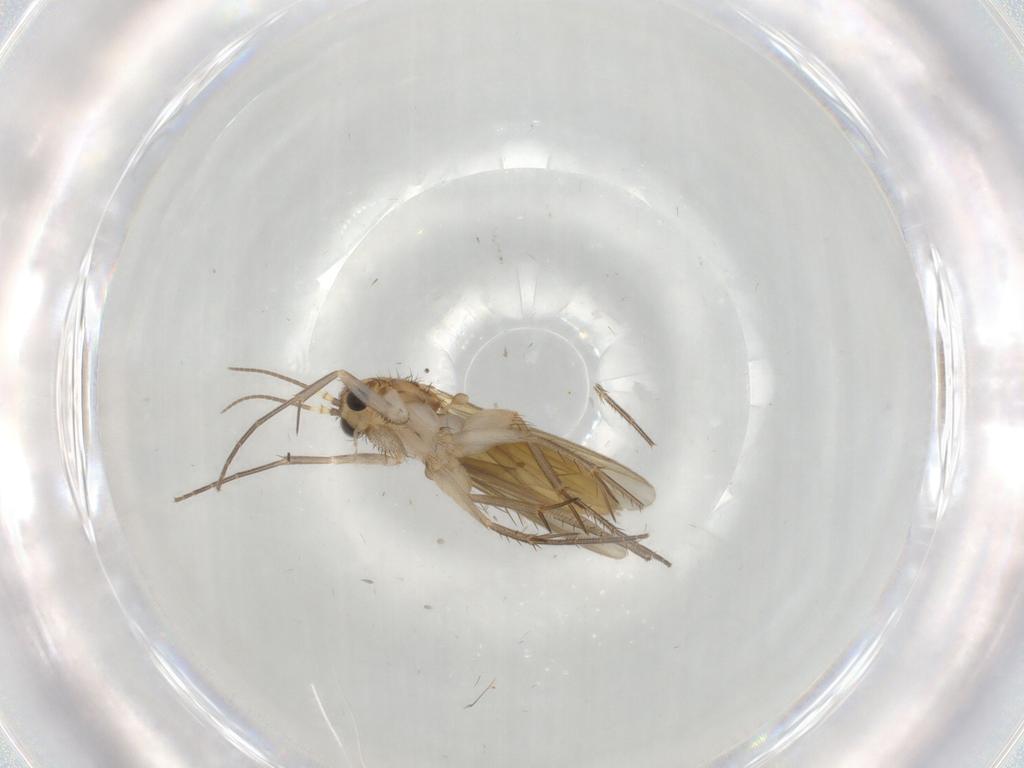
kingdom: Animalia
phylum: Arthropoda
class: Insecta
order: Diptera
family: Mycetophilidae
